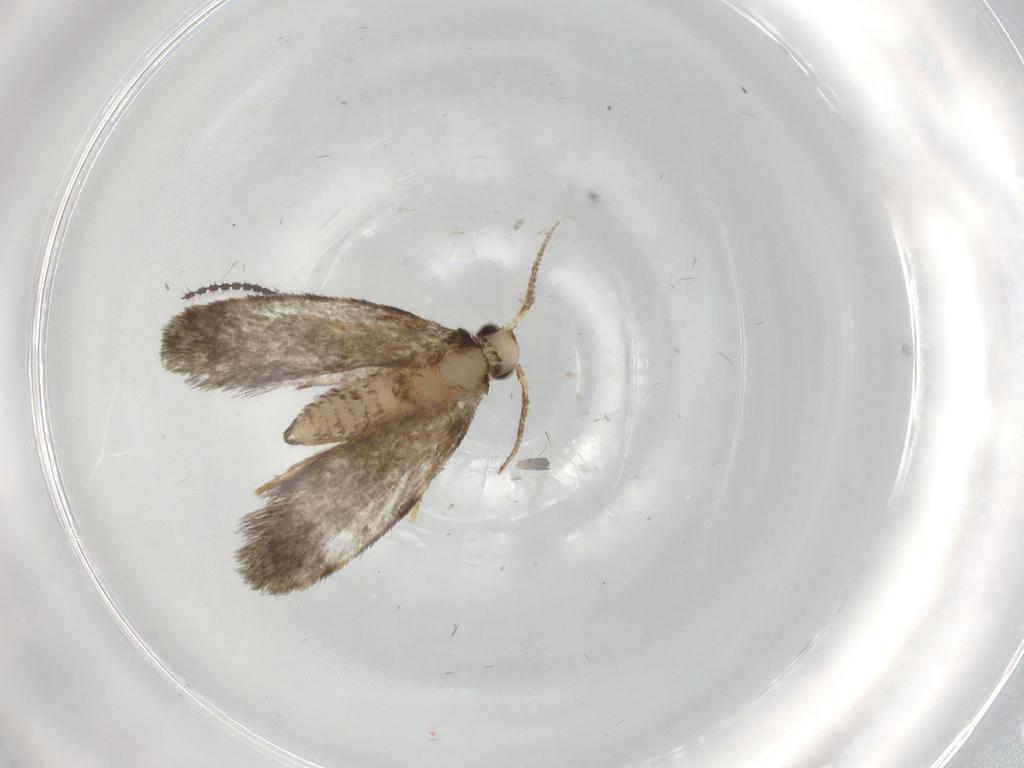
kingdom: Animalia
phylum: Arthropoda
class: Insecta
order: Lepidoptera
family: Psychidae
